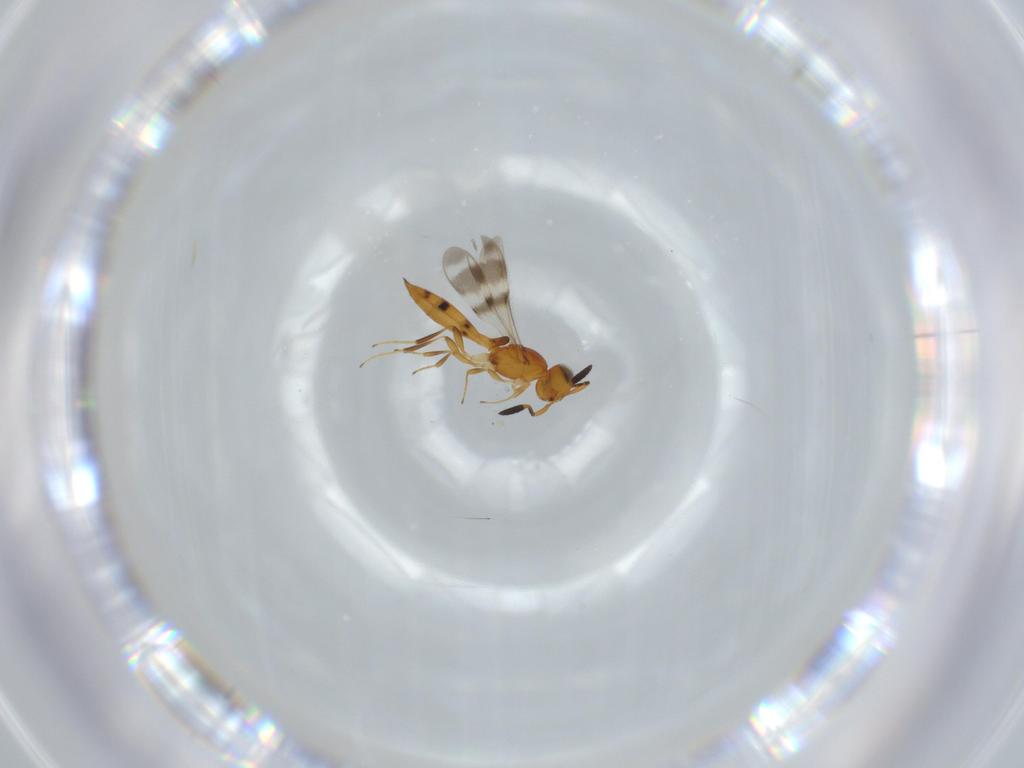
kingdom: Animalia
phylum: Arthropoda
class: Insecta
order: Hymenoptera
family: Scelionidae
